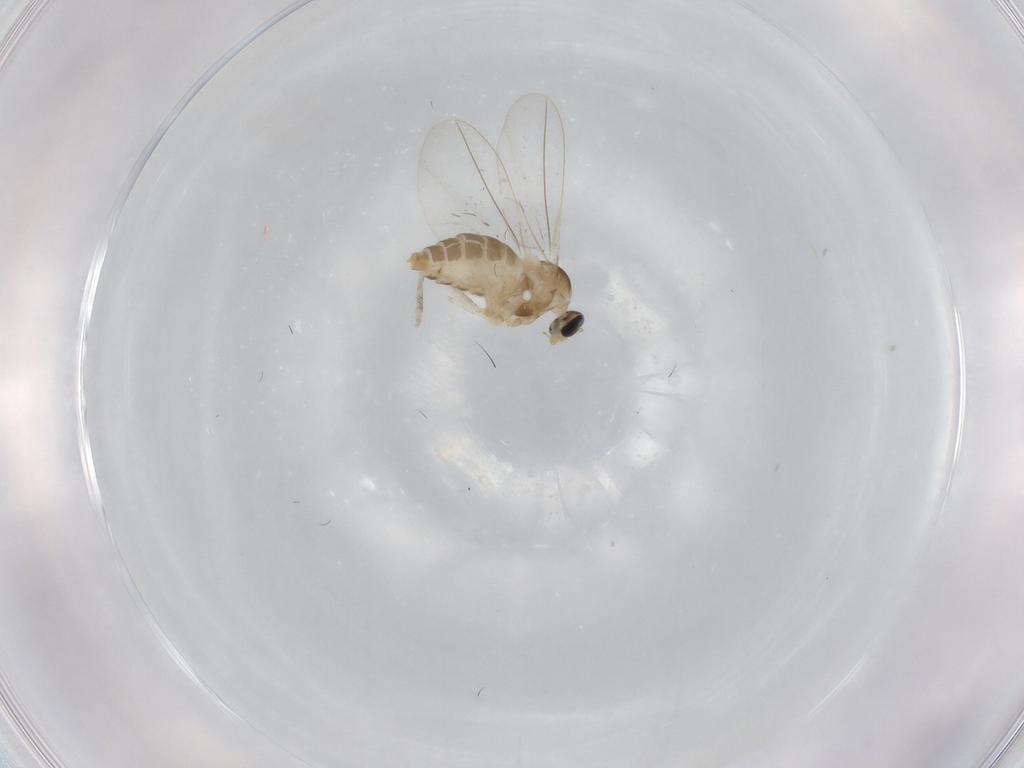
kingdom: Animalia
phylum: Arthropoda
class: Insecta
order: Diptera
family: Cecidomyiidae
